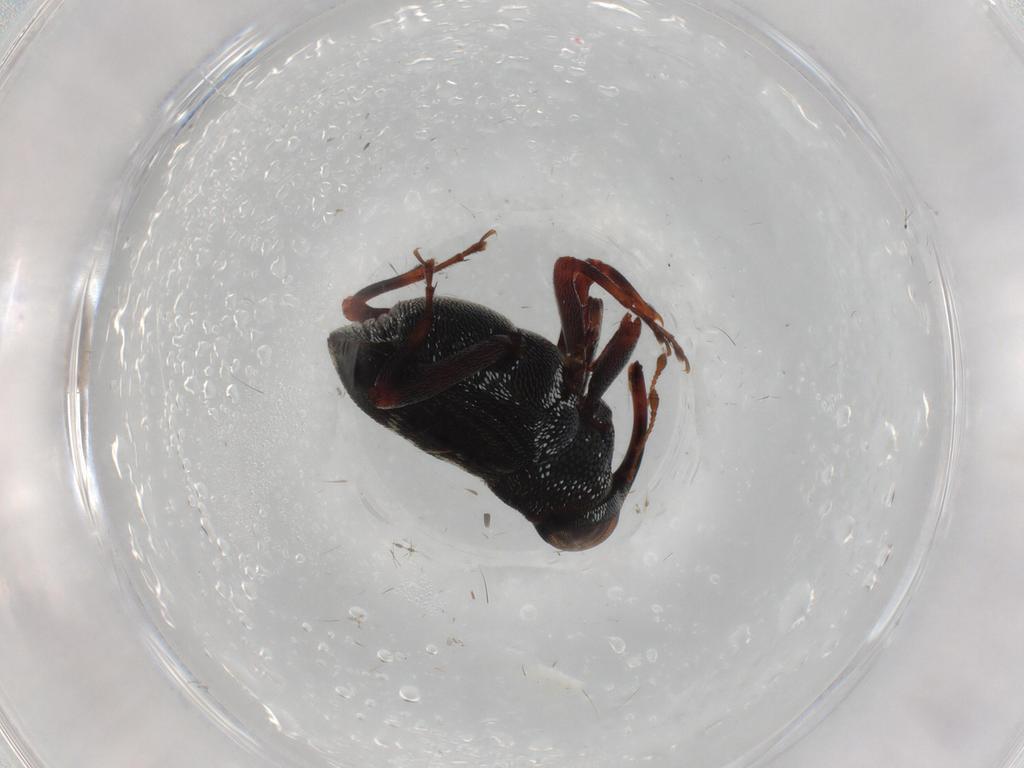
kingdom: Animalia
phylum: Arthropoda
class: Insecta
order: Coleoptera
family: Curculionidae
